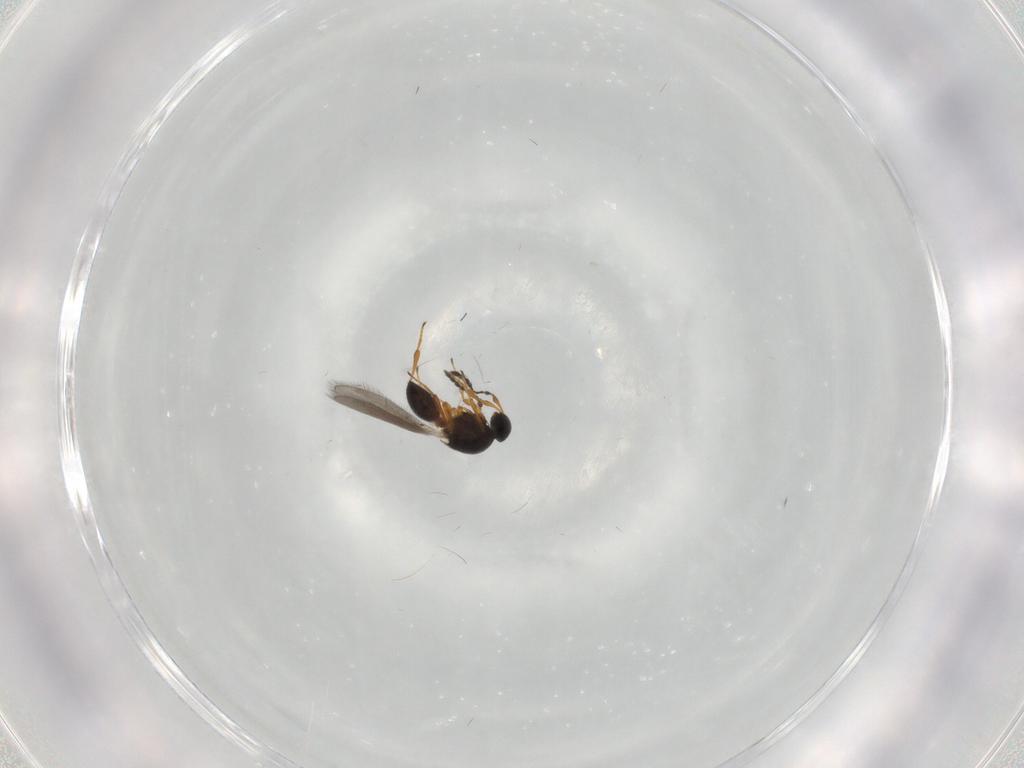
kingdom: Animalia
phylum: Arthropoda
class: Insecta
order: Hymenoptera
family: Platygastridae
